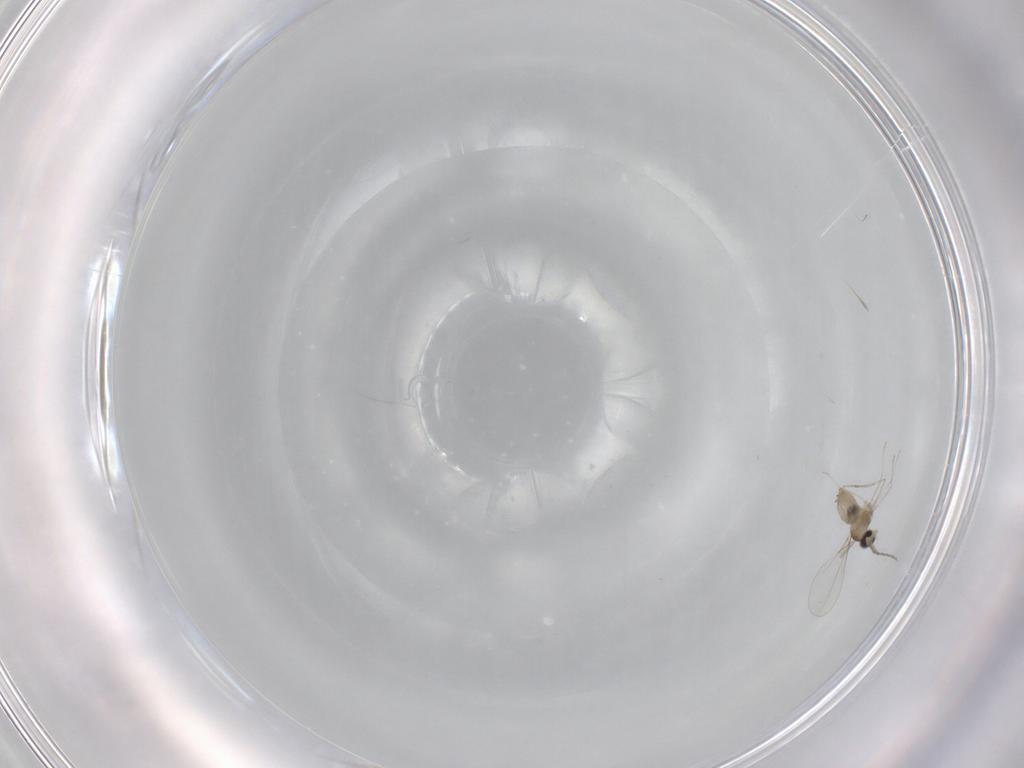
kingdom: Animalia
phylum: Arthropoda
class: Insecta
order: Diptera
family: Cecidomyiidae
